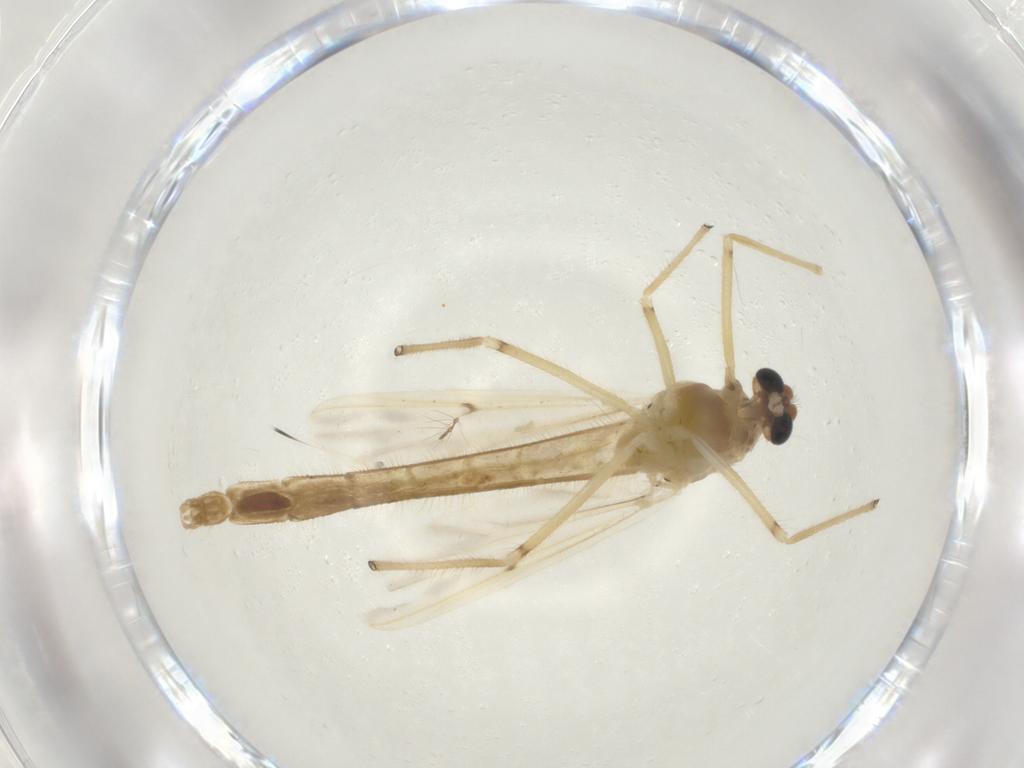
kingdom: Animalia
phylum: Arthropoda
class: Insecta
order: Diptera
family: Chironomidae
